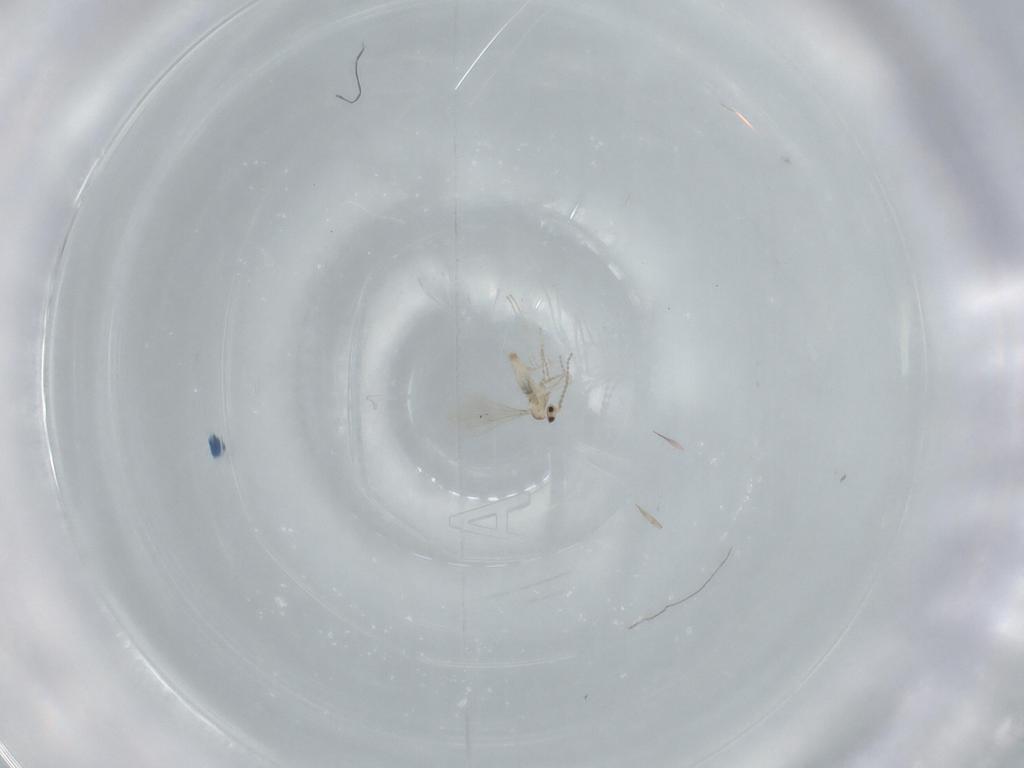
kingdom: Animalia
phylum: Arthropoda
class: Insecta
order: Diptera
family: Cecidomyiidae
